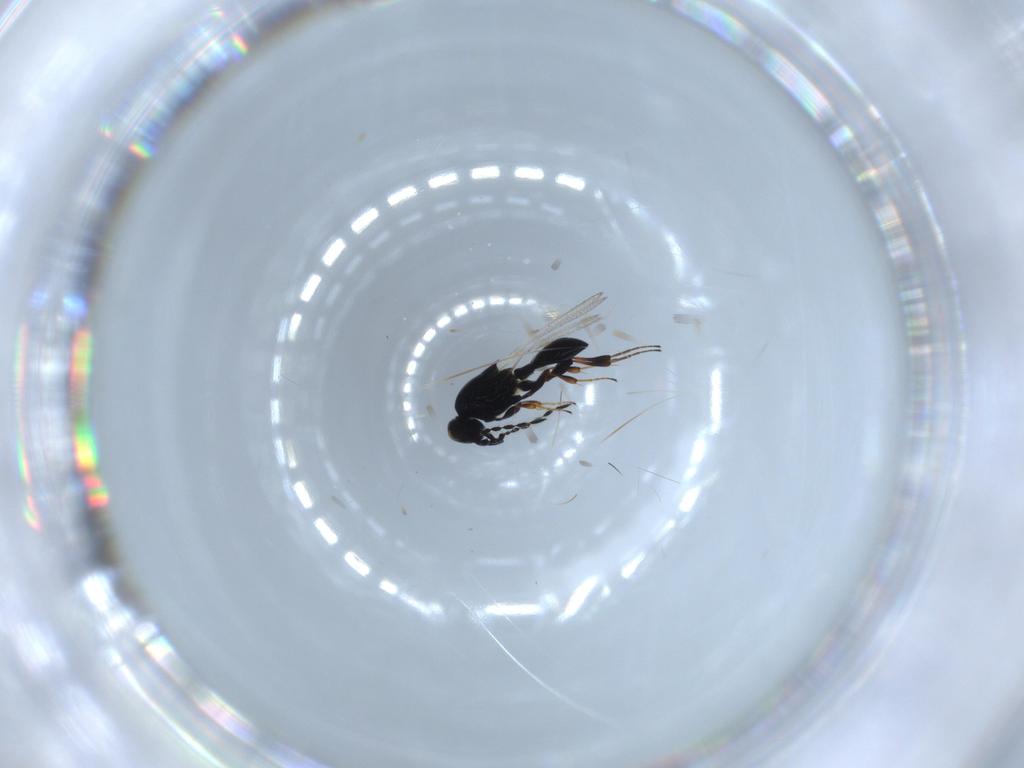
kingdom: Animalia
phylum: Arthropoda
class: Insecta
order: Hymenoptera
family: Platygastridae
